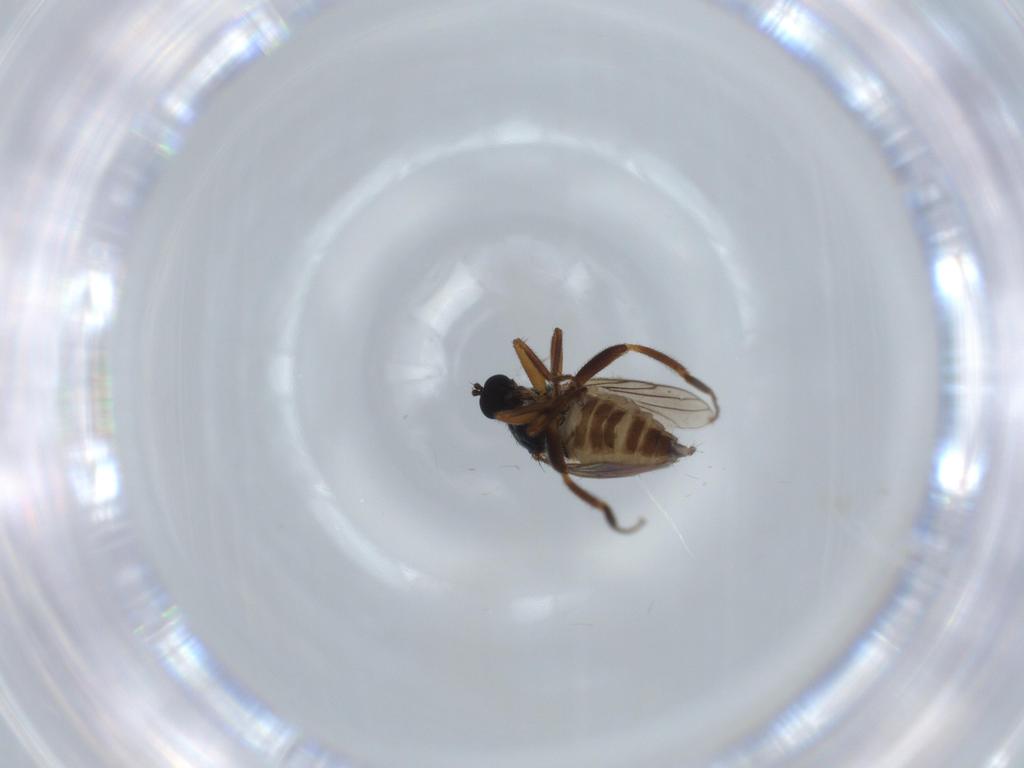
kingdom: Animalia
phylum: Arthropoda
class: Insecta
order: Diptera
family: Hybotidae
